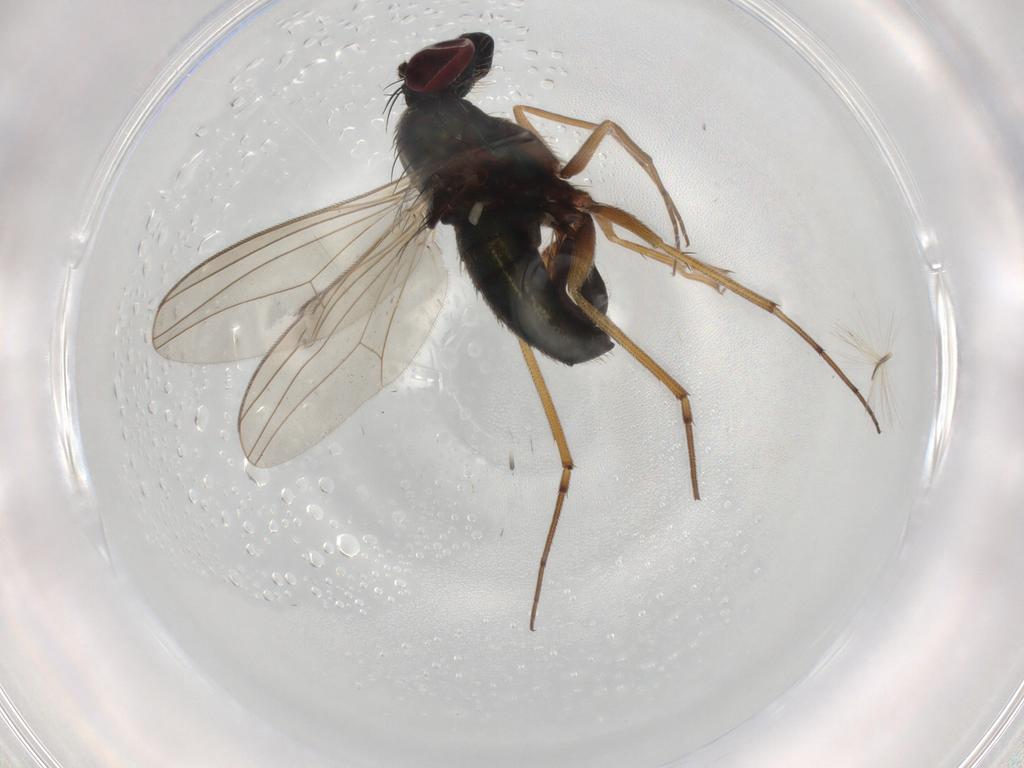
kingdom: Animalia
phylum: Arthropoda
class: Insecta
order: Diptera
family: Dolichopodidae
